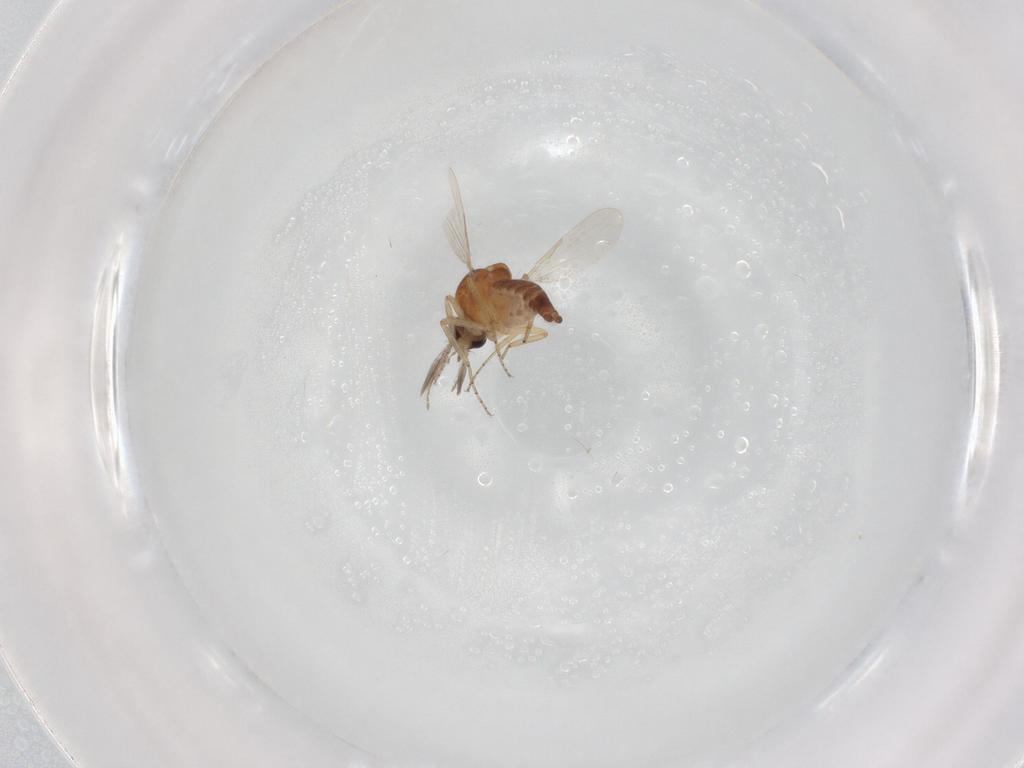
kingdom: Animalia
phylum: Arthropoda
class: Insecta
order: Diptera
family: Ceratopogonidae
